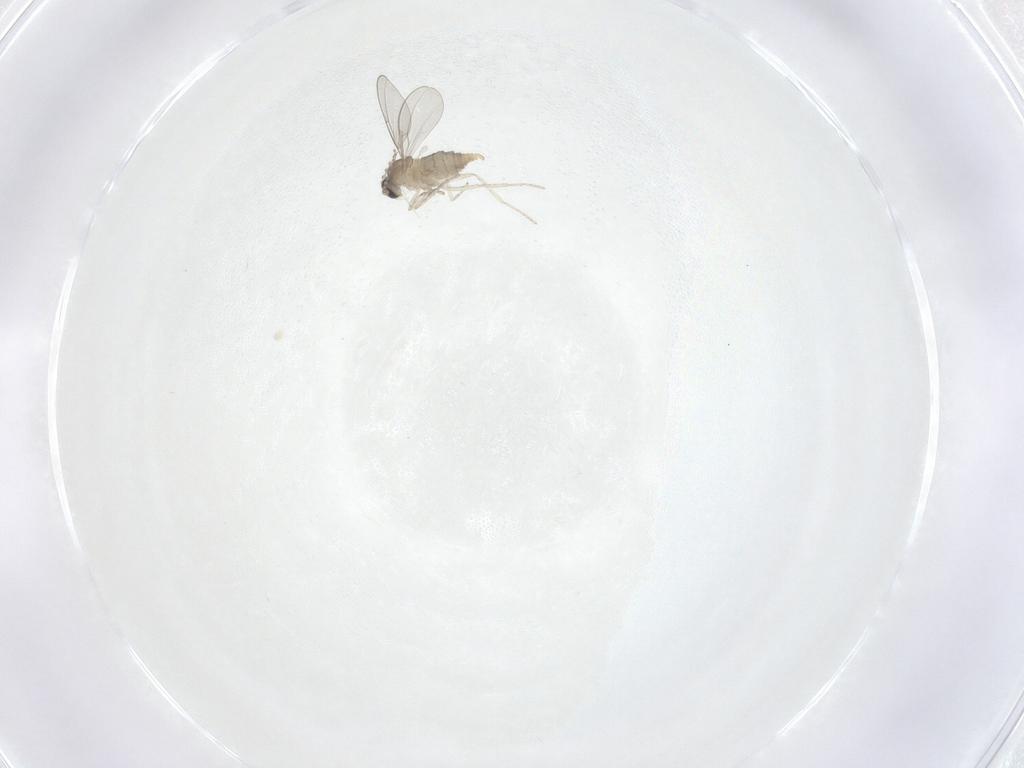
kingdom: Animalia
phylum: Arthropoda
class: Insecta
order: Diptera
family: Cecidomyiidae
